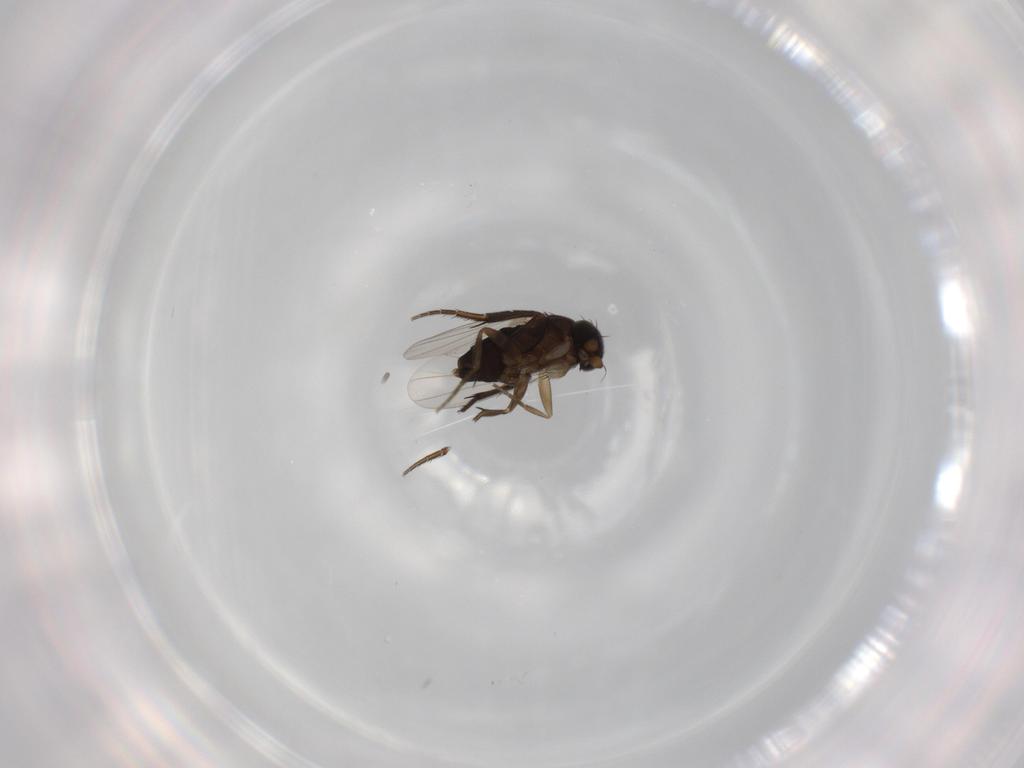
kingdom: Animalia
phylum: Arthropoda
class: Insecta
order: Diptera
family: Phoridae
